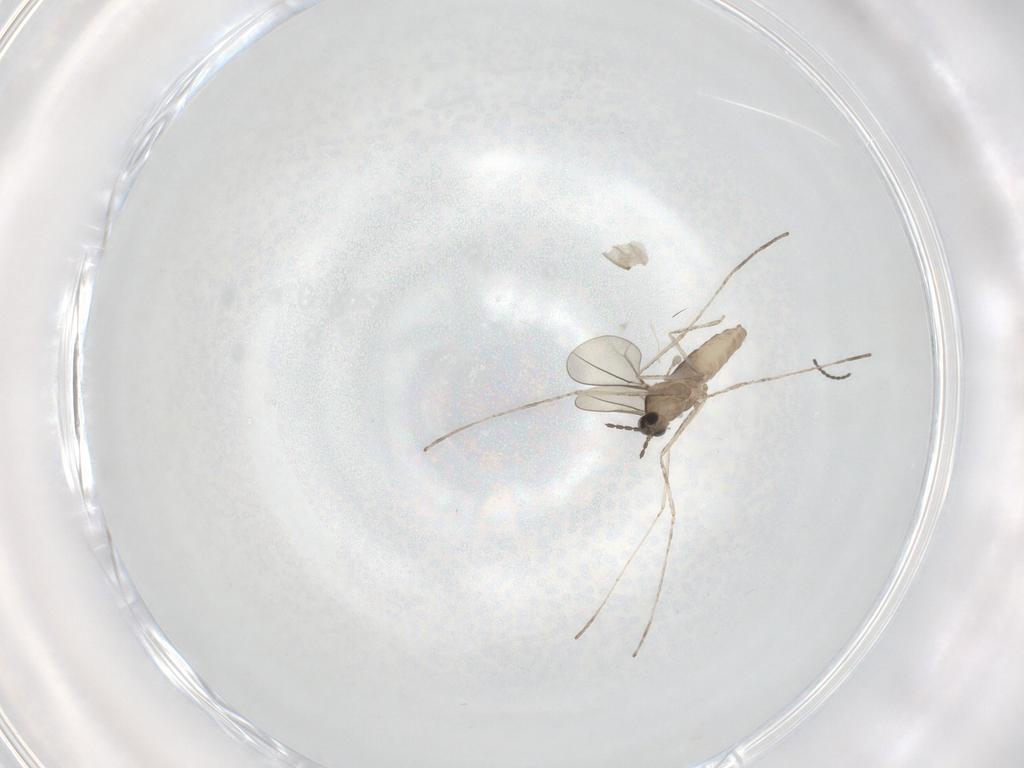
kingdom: Animalia
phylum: Arthropoda
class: Insecta
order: Diptera
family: Cecidomyiidae
